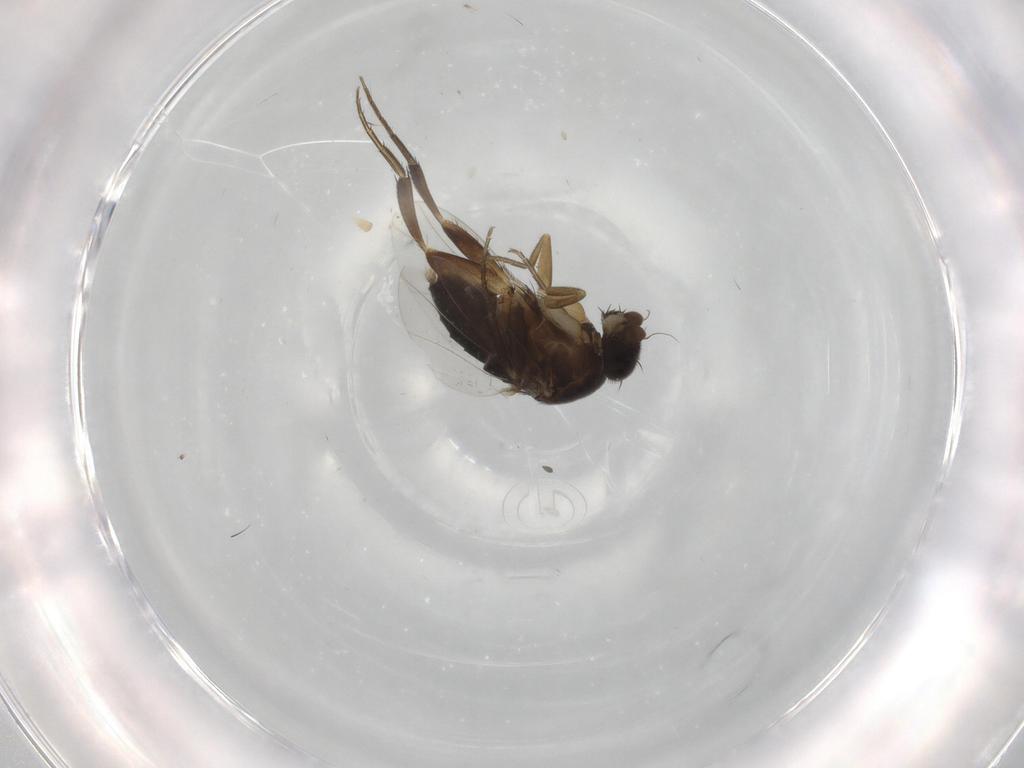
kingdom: Animalia
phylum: Arthropoda
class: Insecta
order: Diptera
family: Phoridae
